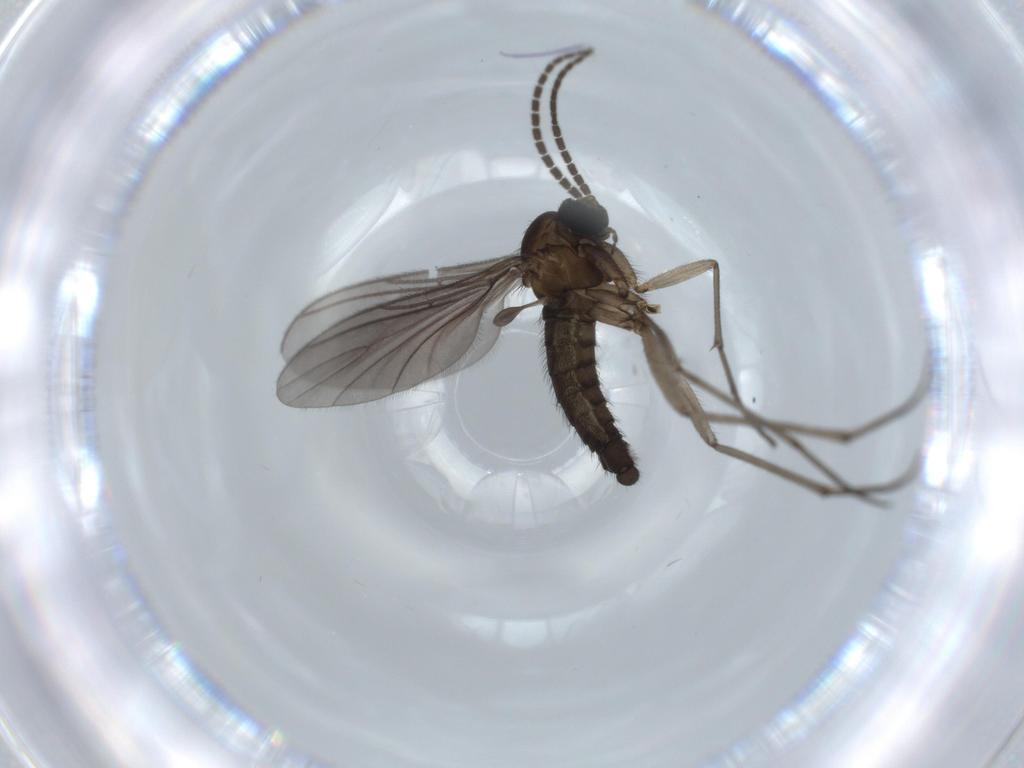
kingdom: Animalia
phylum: Arthropoda
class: Insecta
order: Diptera
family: Sciaridae
